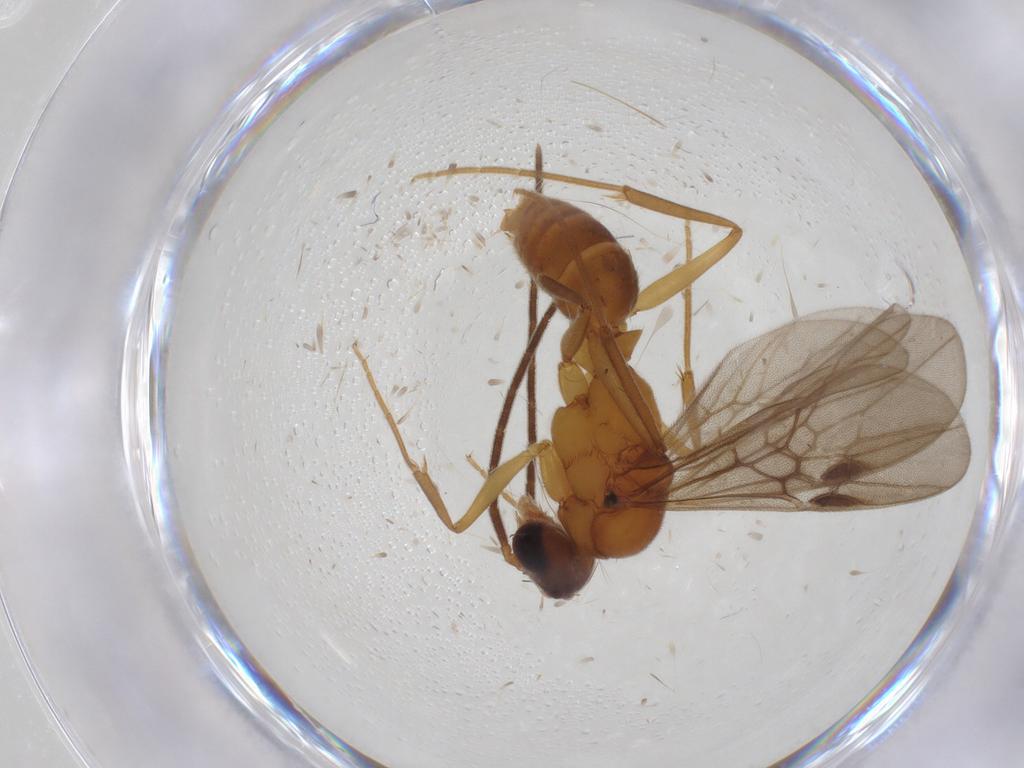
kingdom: Animalia
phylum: Arthropoda
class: Insecta
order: Hymenoptera
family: Formicidae
